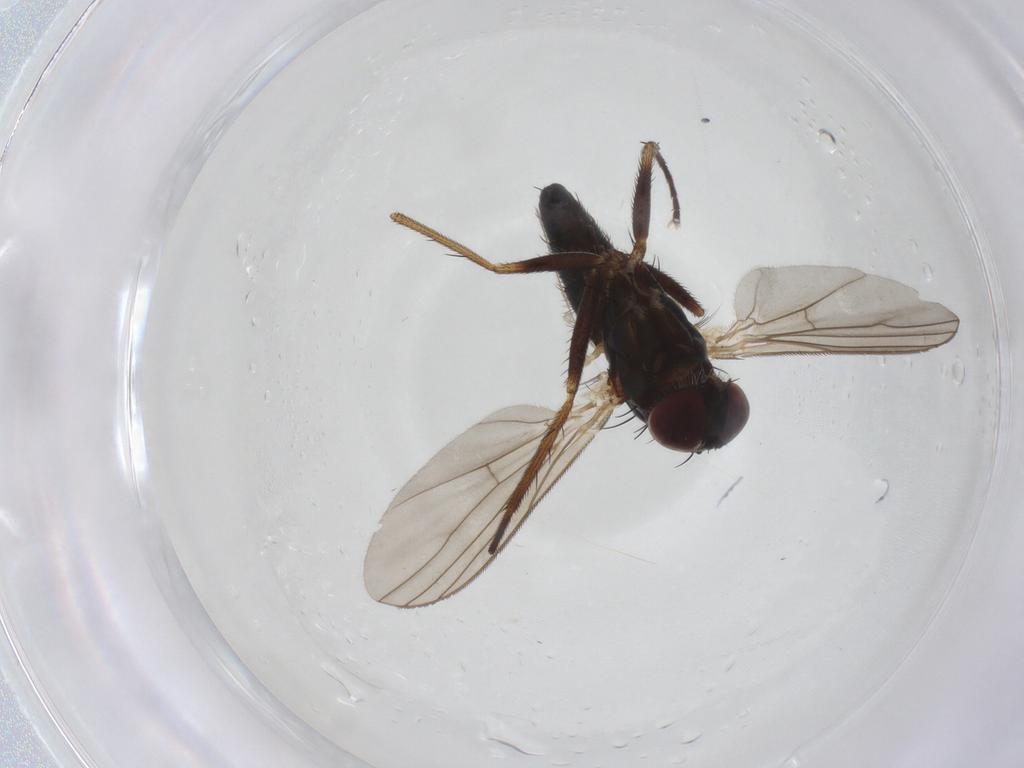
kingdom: Animalia
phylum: Arthropoda
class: Insecta
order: Diptera
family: Dolichopodidae
